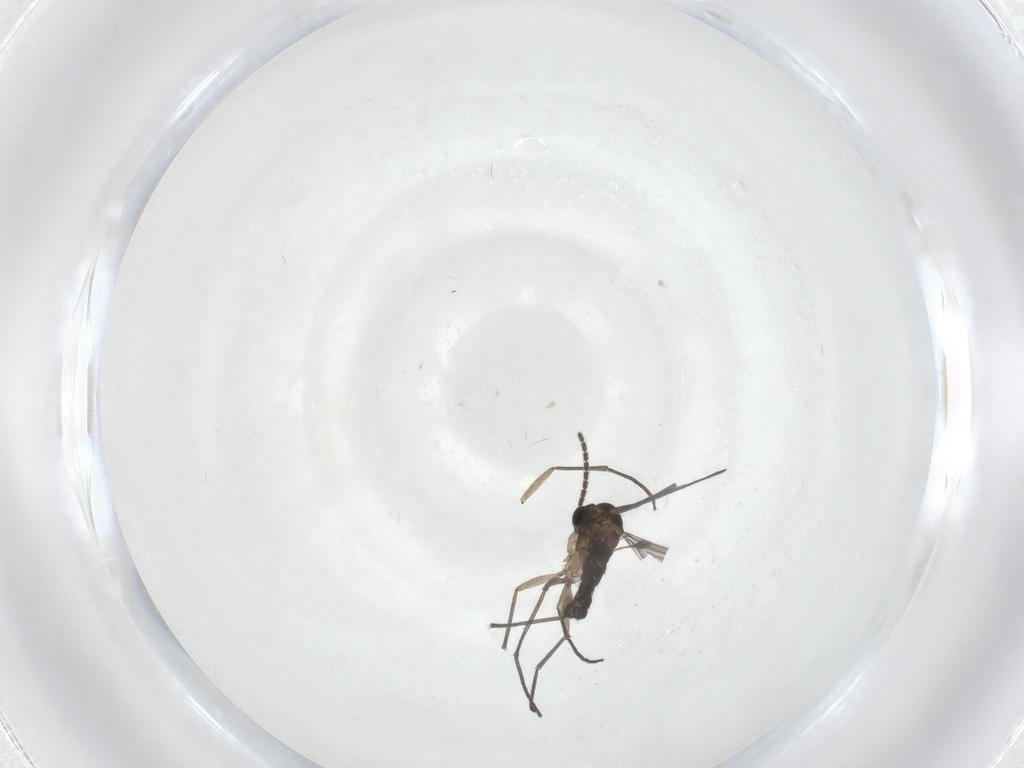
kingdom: Animalia
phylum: Arthropoda
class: Insecta
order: Diptera
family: Sciaridae
